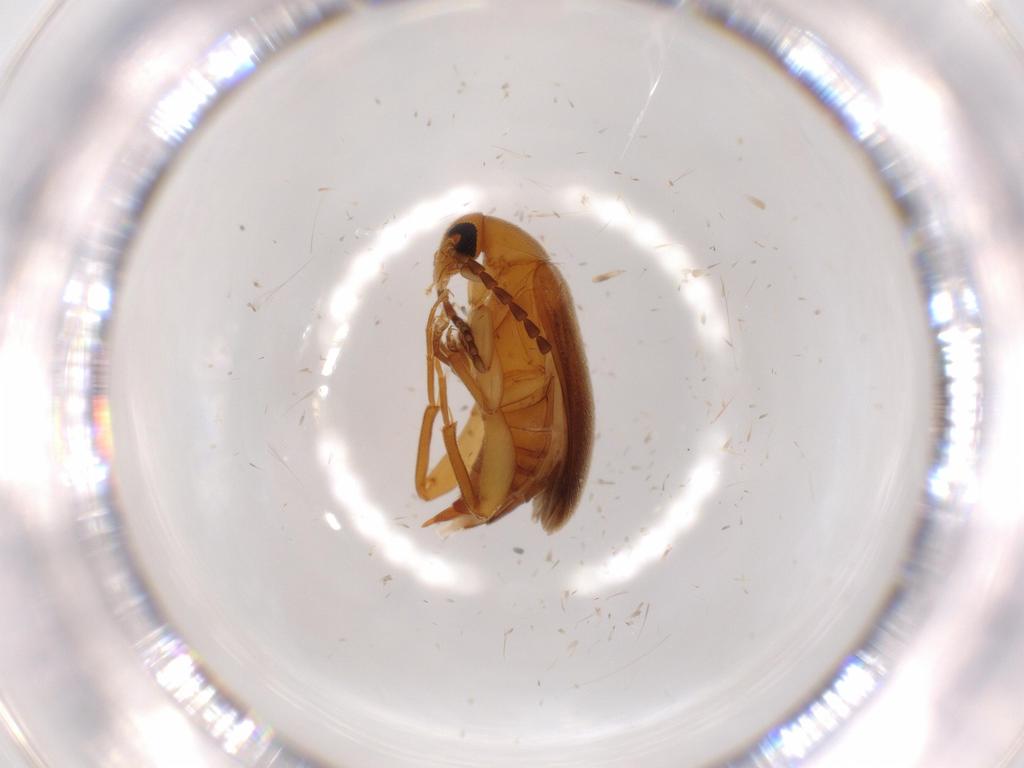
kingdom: Animalia
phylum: Arthropoda
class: Insecta
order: Coleoptera
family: Scraptiidae
